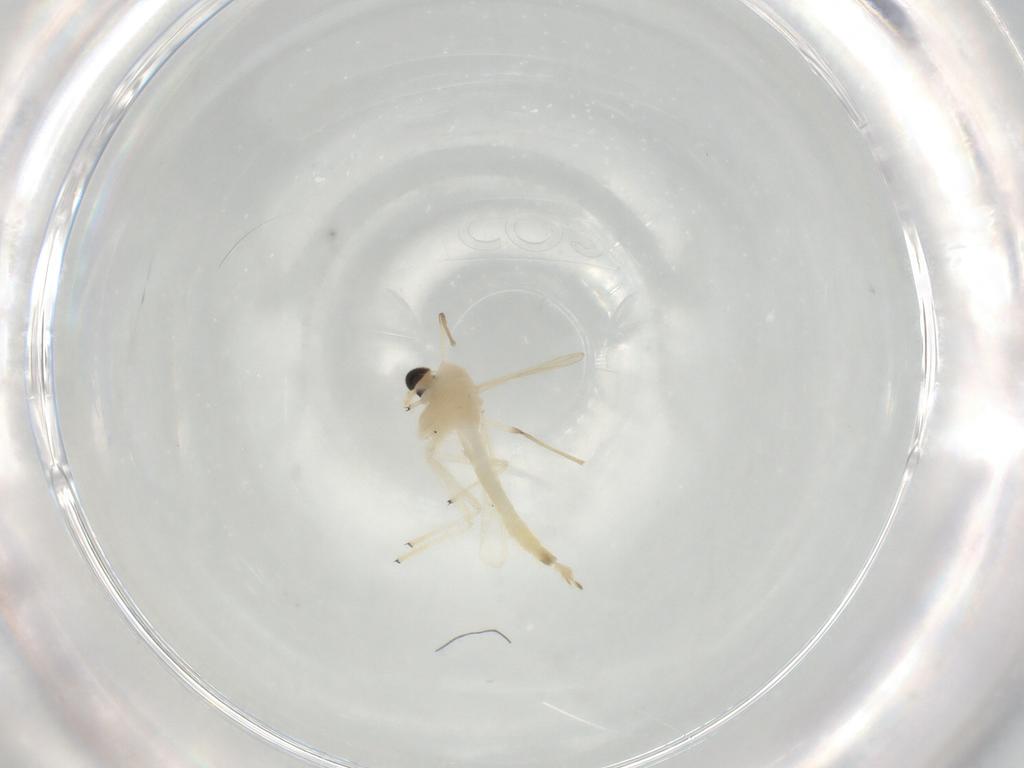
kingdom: Animalia
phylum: Arthropoda
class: Insecta
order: Diptera
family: Chironomidae
